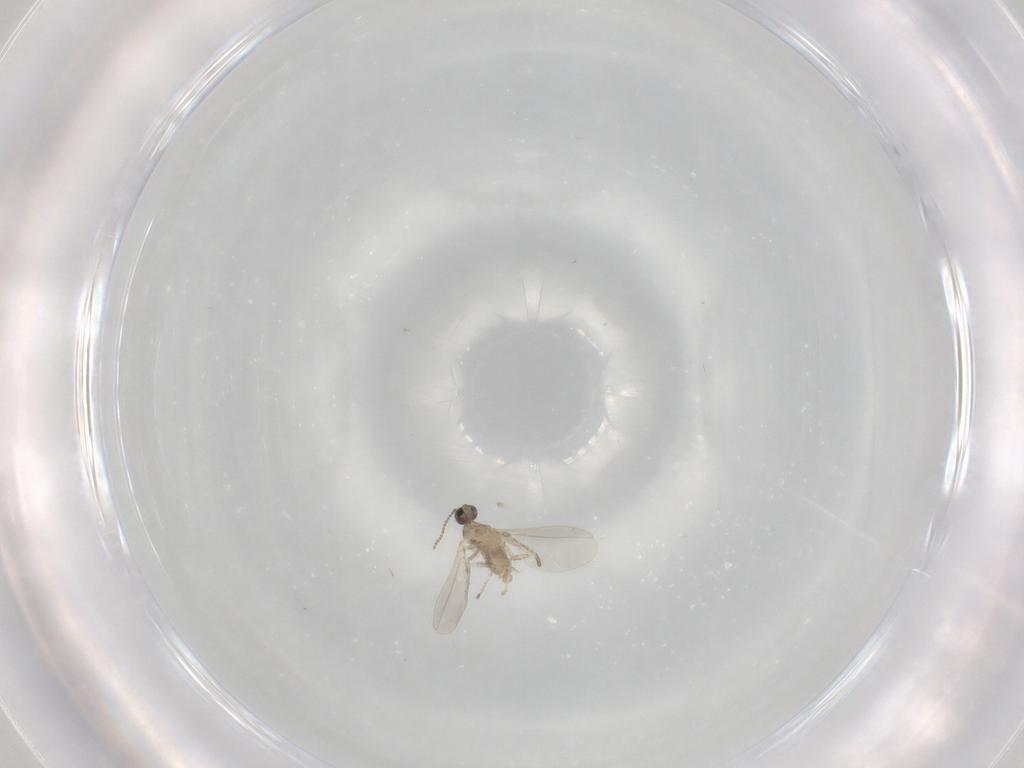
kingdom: Animalia
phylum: Arthropoda
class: Insecta
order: Diptera
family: Cecidomyiidae
